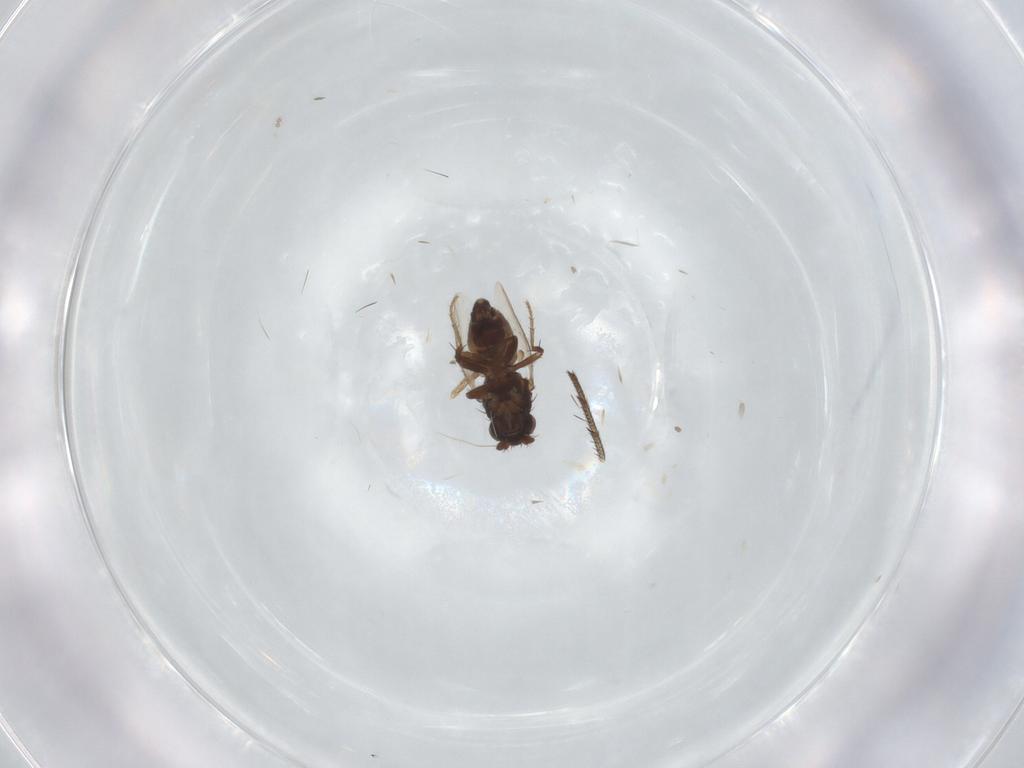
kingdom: Animalia
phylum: Arthropoda
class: Insecta
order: Diptera
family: Sphaeroceridae
